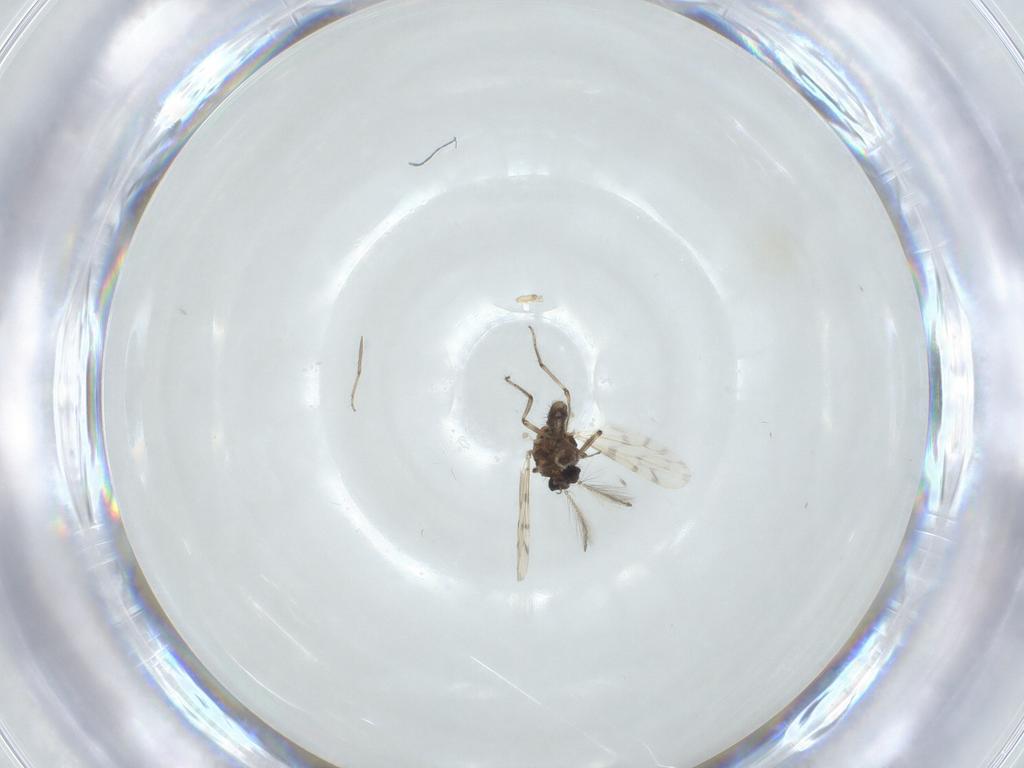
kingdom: Animalia
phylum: Arthropoda
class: Insecta
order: Diptera
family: Ceratopogonidae
